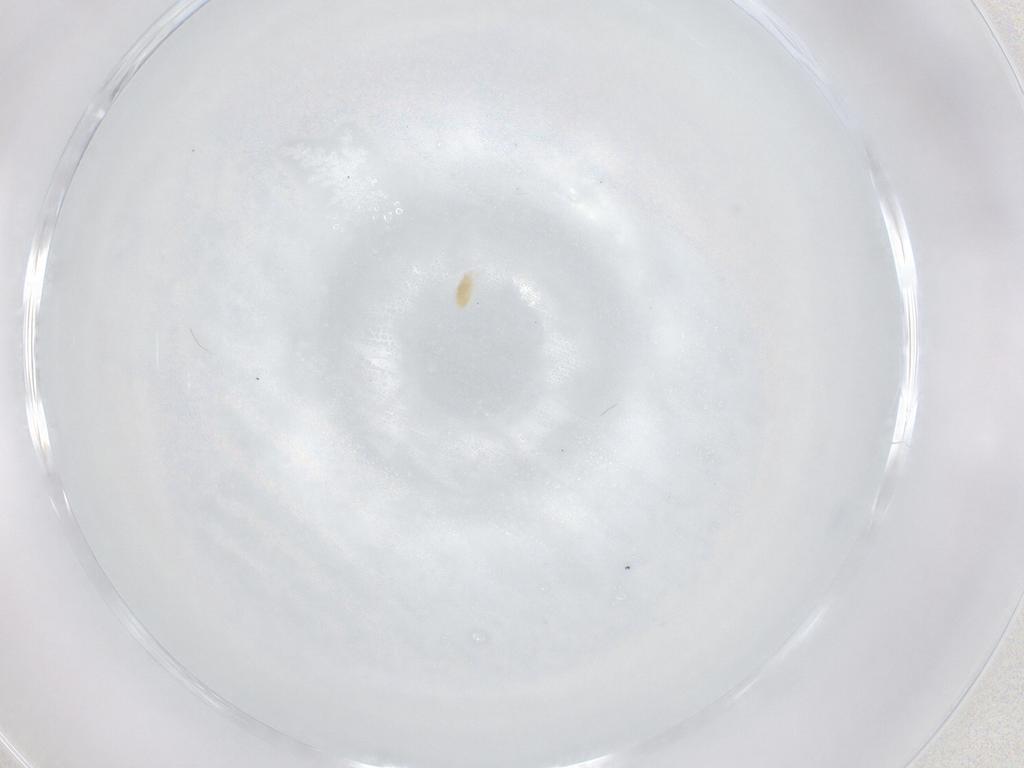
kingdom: Animalia
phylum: Arthropoda
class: Arachnida
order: Trombidiformes
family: Eupodidae
